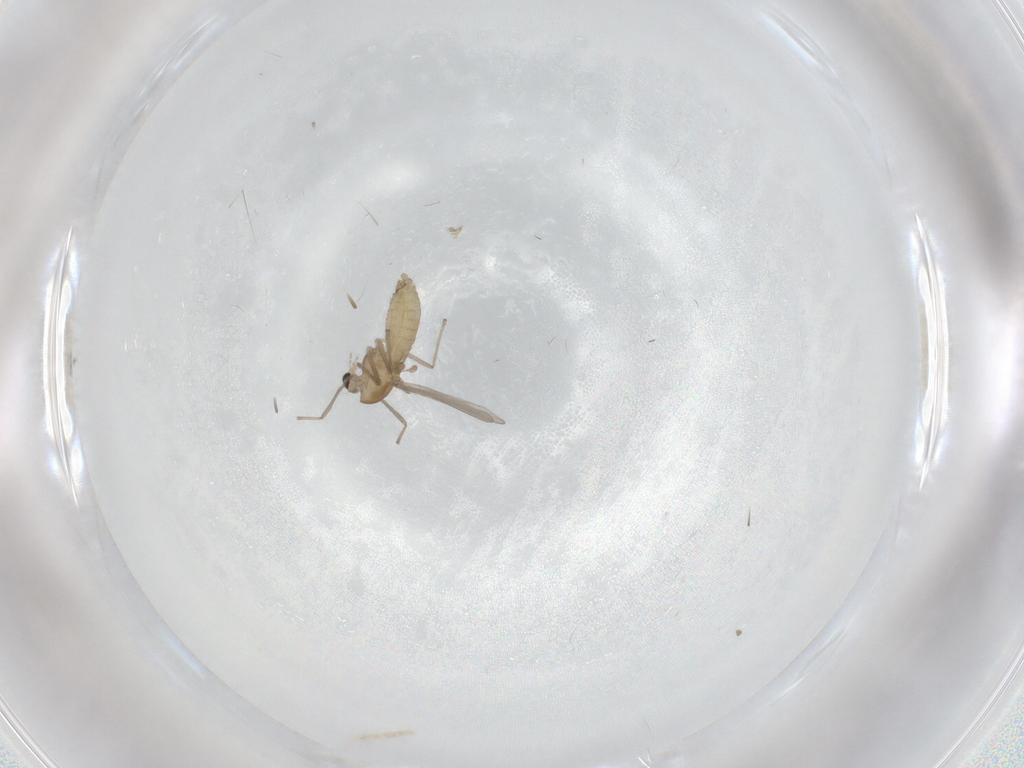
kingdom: Animalia
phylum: Arthropoda
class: Insecta
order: Diptera
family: Chironomidae
